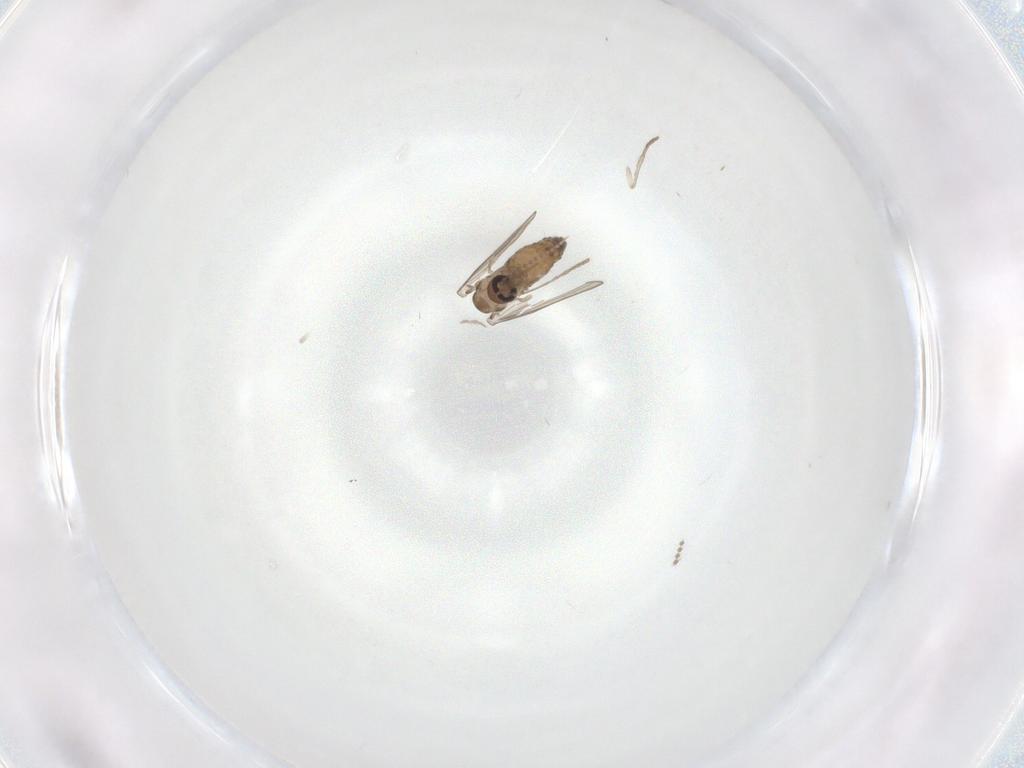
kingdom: Animalia
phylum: Arthropoda
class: Insecta
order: Diptera
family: Psychodidae
